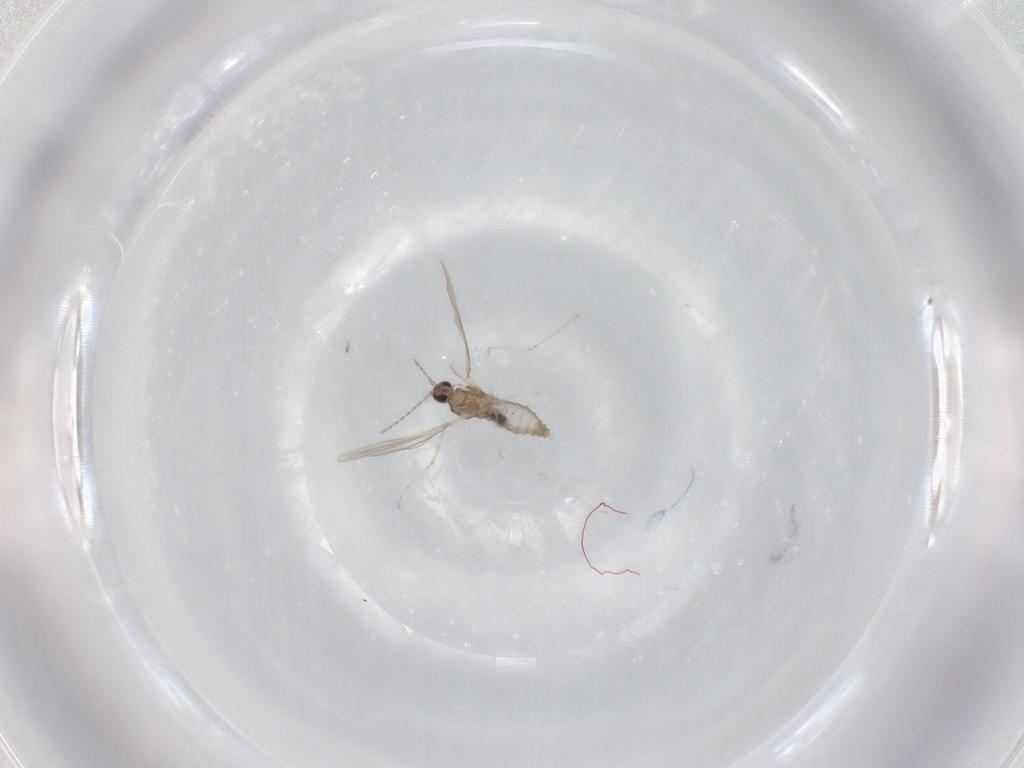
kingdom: Animalia
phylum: Arthropoda
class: Insecta
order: Diptera
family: Cecidomyiidae
